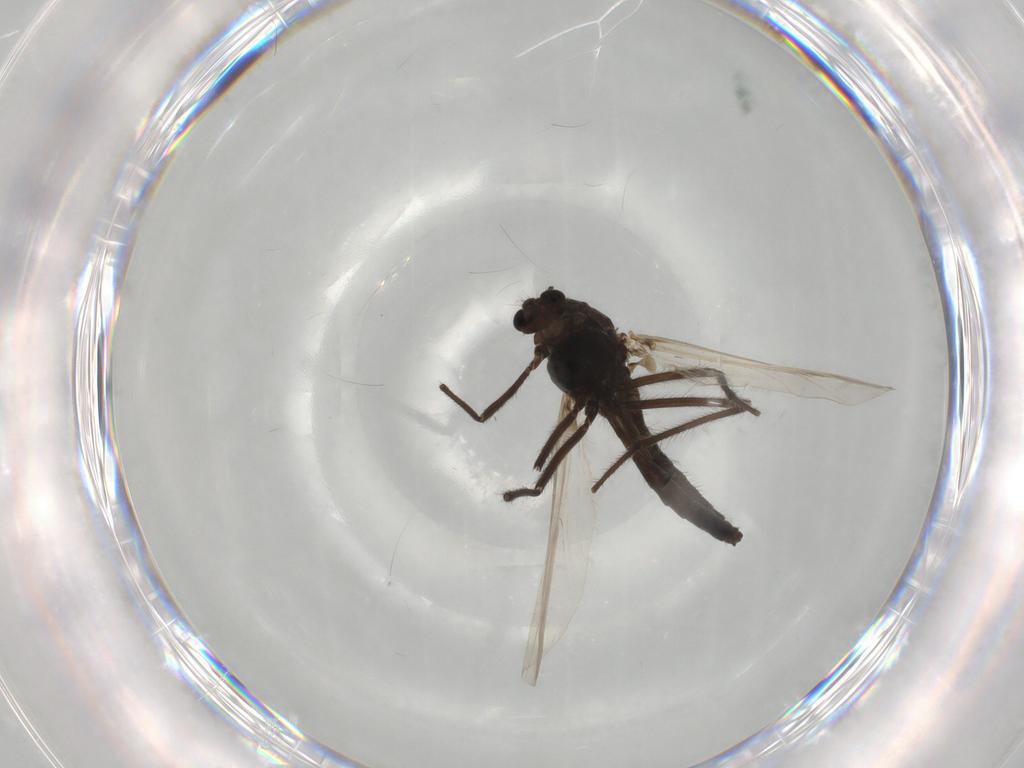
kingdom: Animalia
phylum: Arthropoda
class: Insecta
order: Diptera
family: Chironomidae
